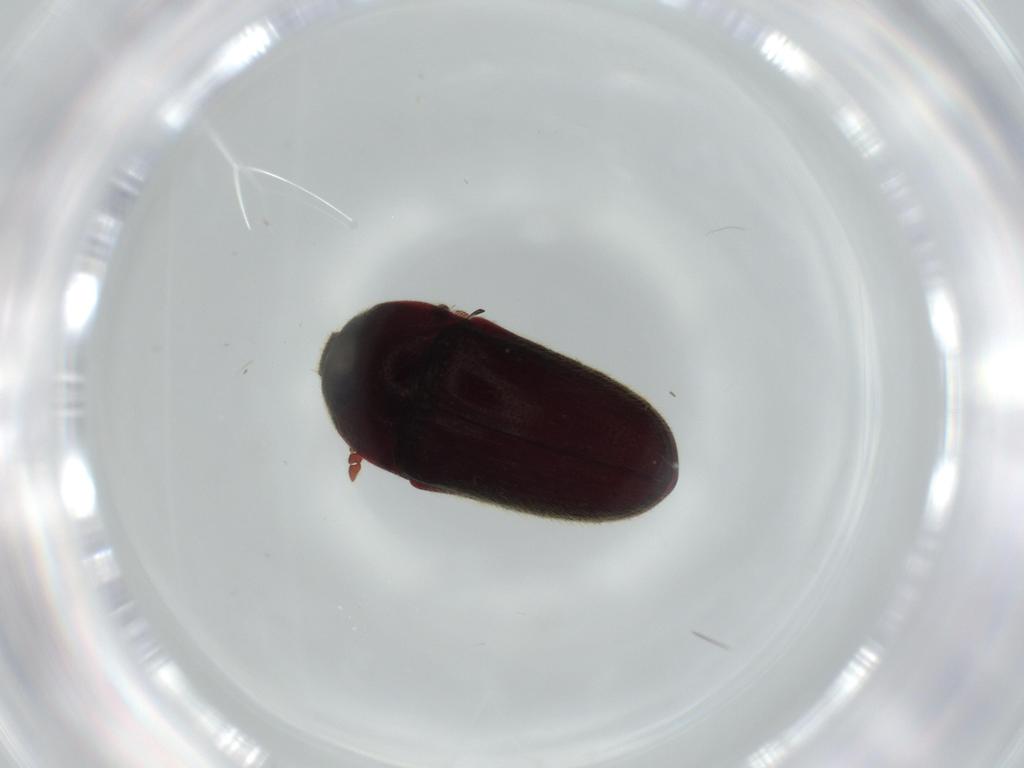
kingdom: Animalia
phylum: Arthropoda
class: Insecta
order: Coleoptera
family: Throscidae
